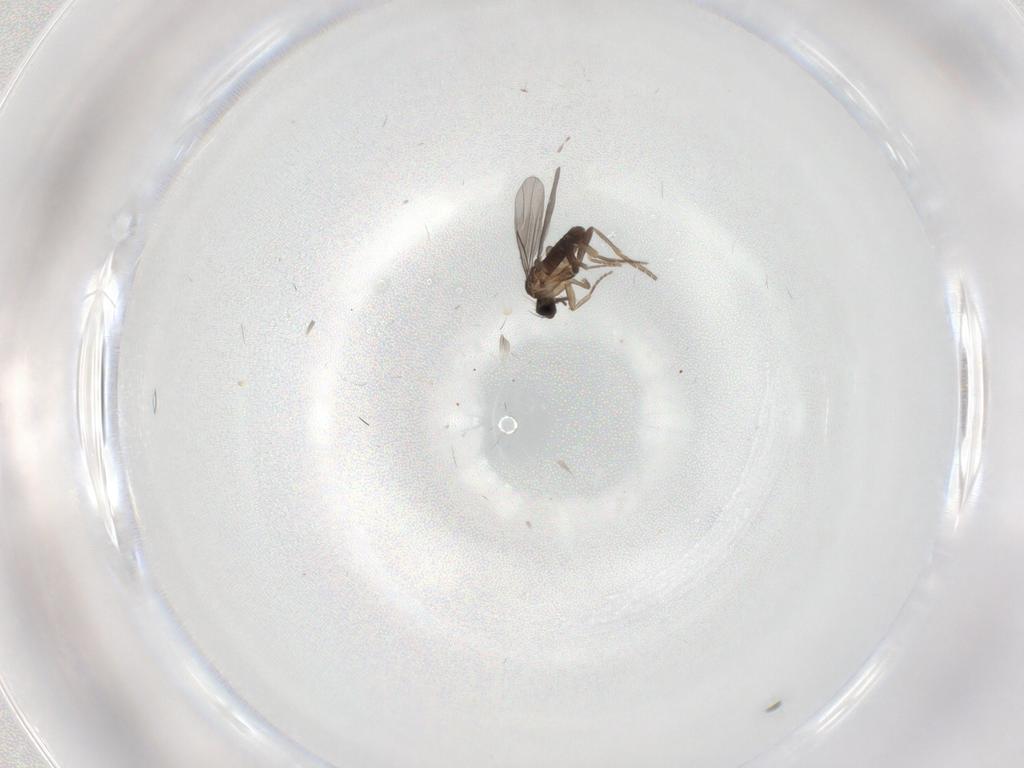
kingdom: Animalia
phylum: Arthropoda
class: Insecta
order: Diptera
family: Cecidomyiidae
